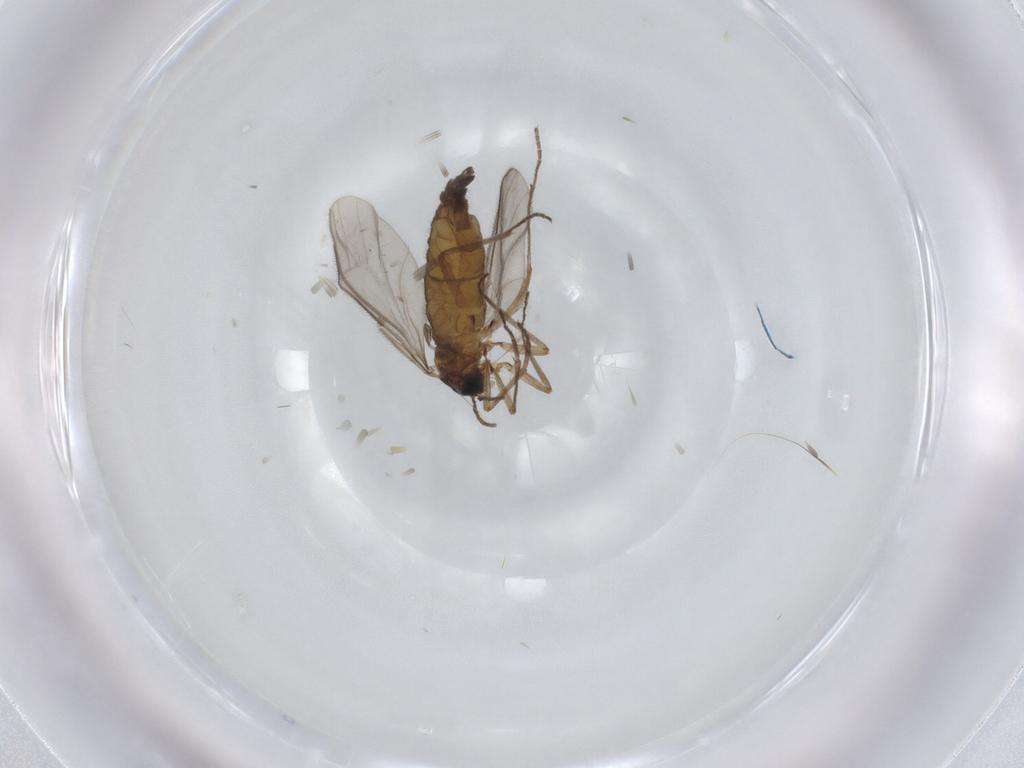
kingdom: Animalia
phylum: Arthropoda
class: Insecta
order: Diptera
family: Sciaridae
